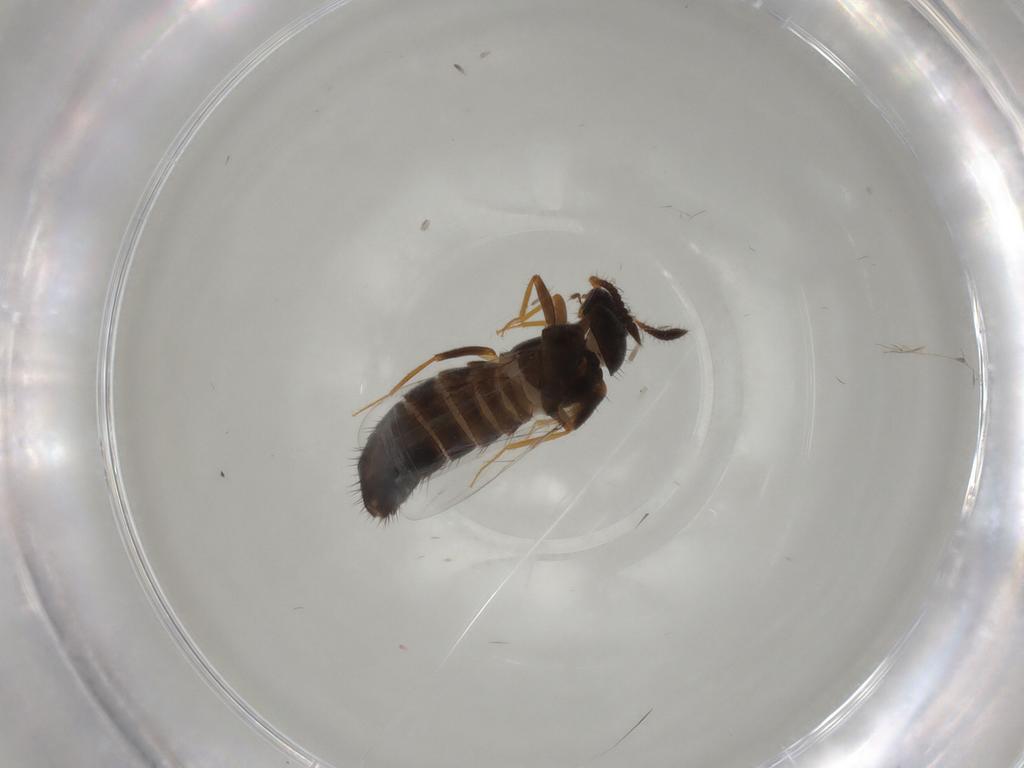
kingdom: Animalia
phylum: Arthropoda
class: Insecta
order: Coleoptera
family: Staphylinidae
